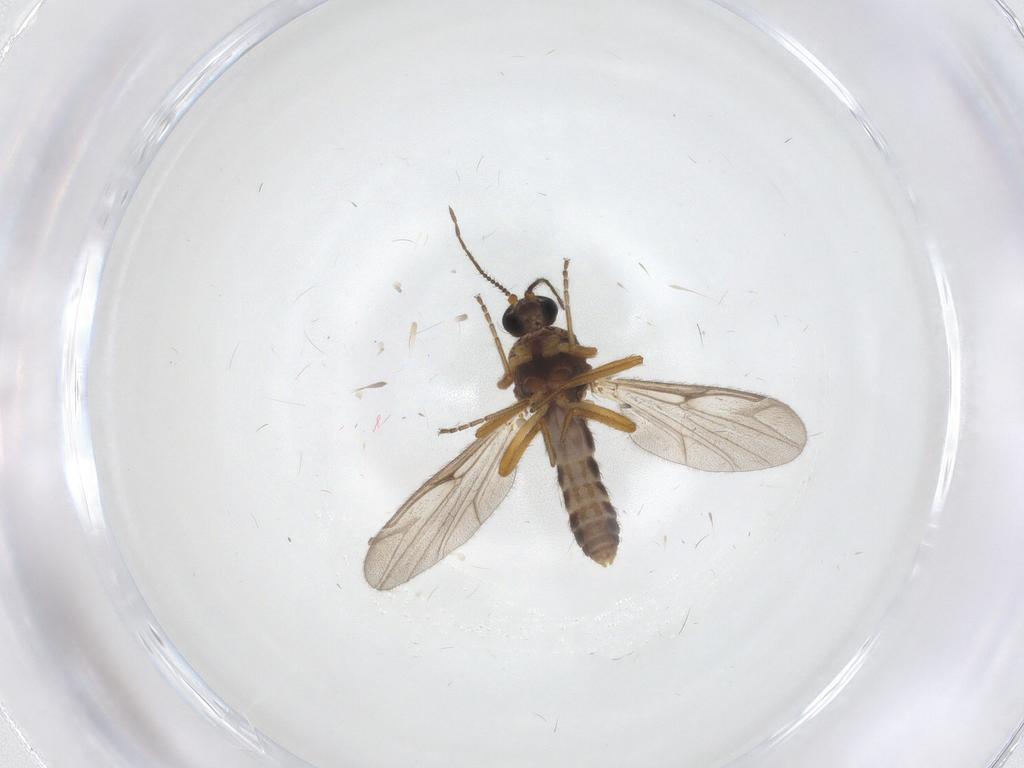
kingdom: Animalia
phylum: Arthropoda
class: Insecta
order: Diptera
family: Ceratopogonidae
